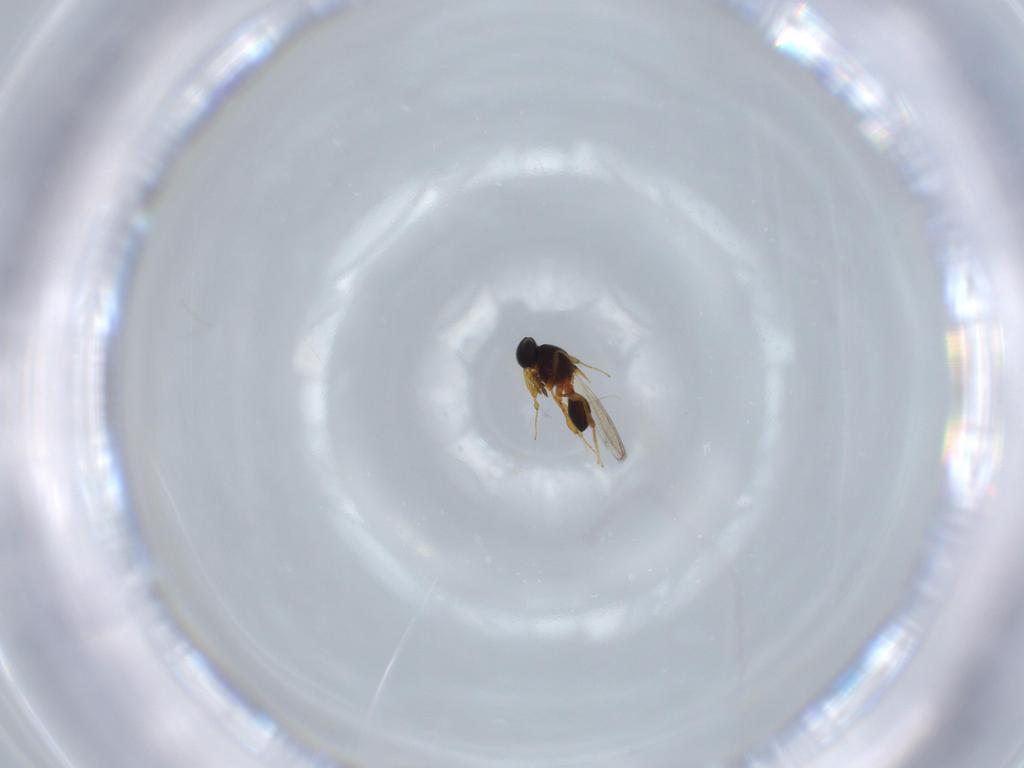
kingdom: Animalia
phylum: Arthropoda
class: Insecta
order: Hymenoptera
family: Platygastridae
